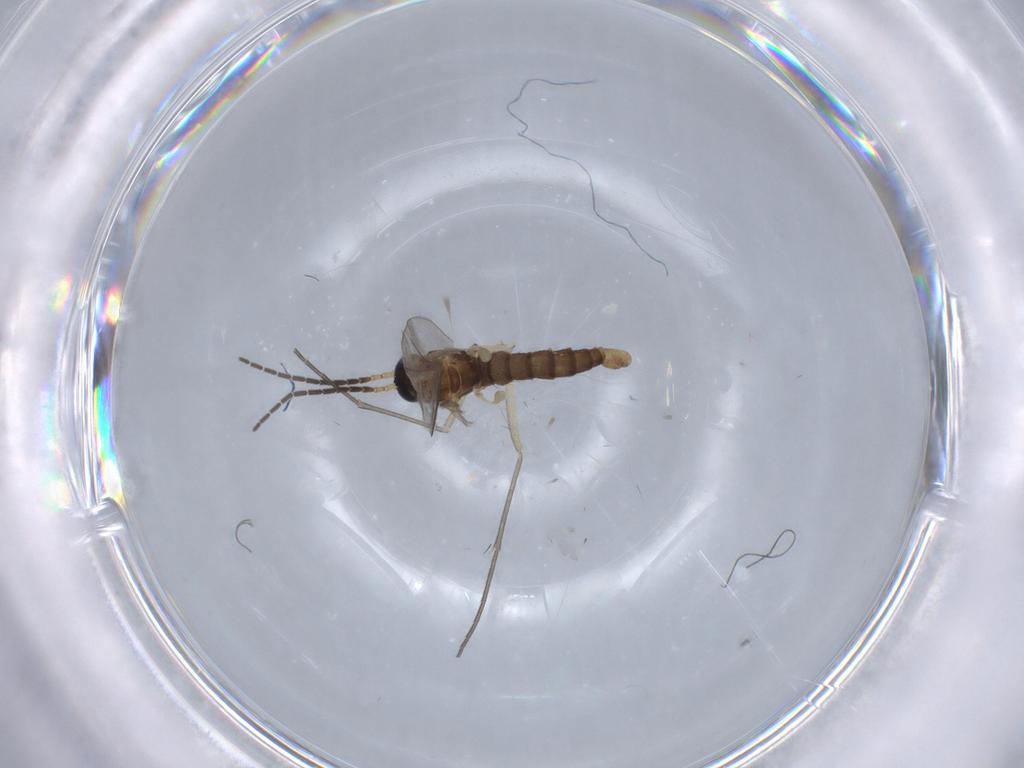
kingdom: Animalia
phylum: Arthropoda
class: Insecta
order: Diptera
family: Sciaridae
